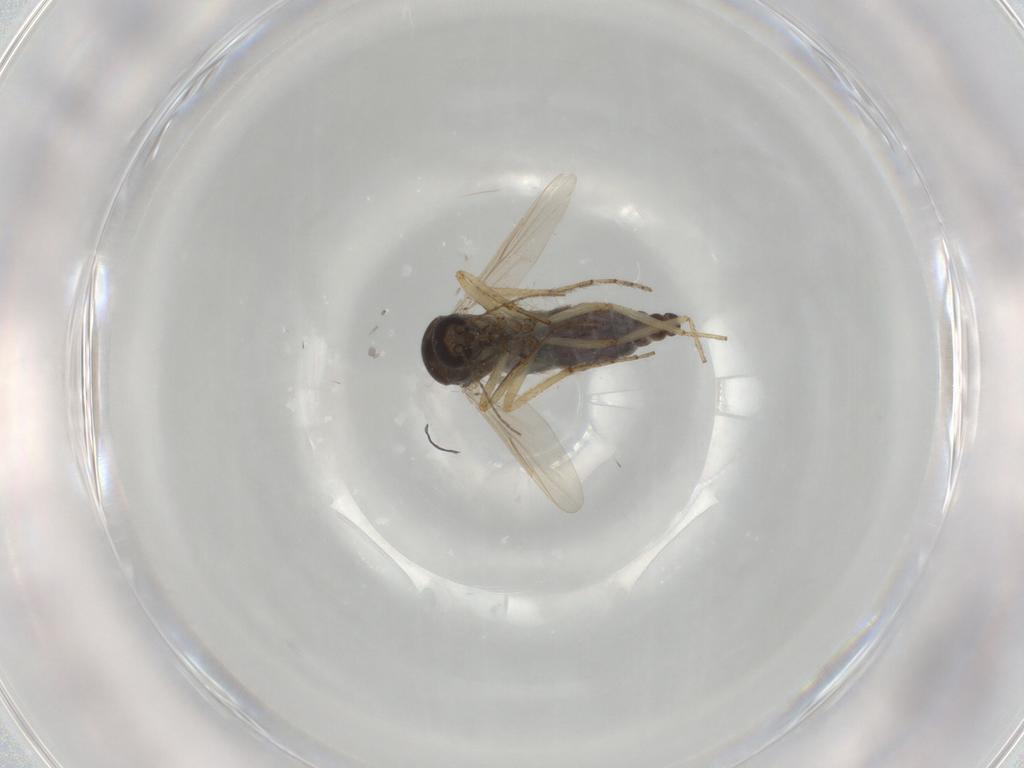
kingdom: Animalia
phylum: Arthropoda
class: Insecta
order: Diptera
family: Ceratopogonidae
